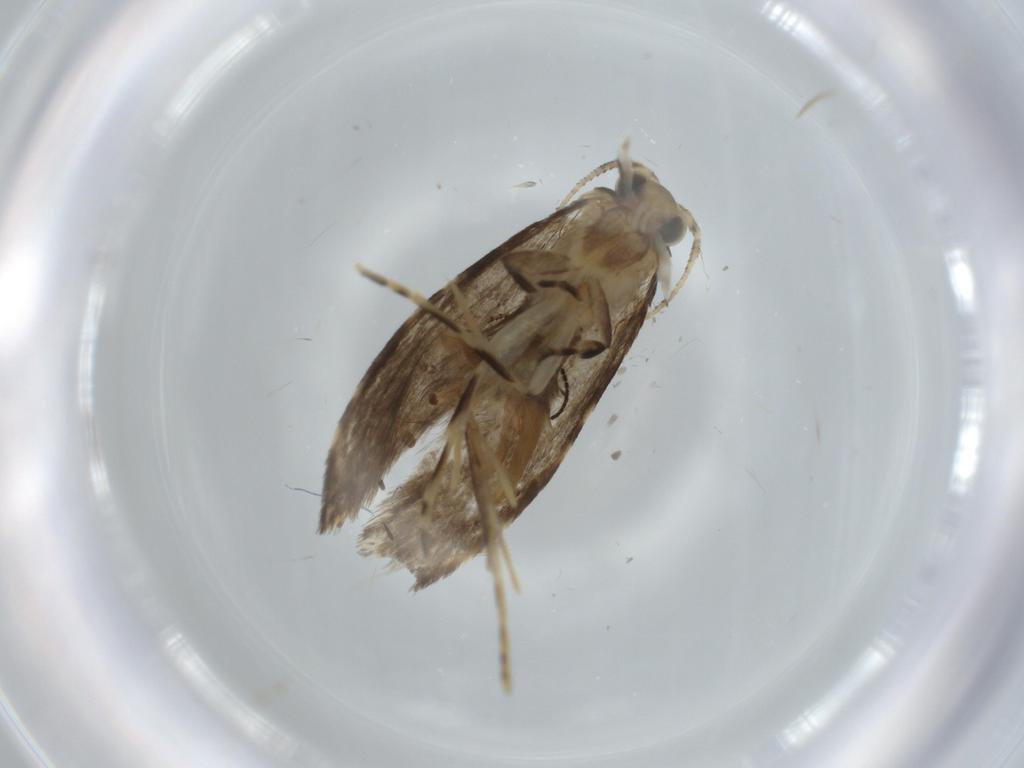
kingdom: Animalia
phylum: Arthropoda
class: Insecta
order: Lepidoptera
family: Tineidae
